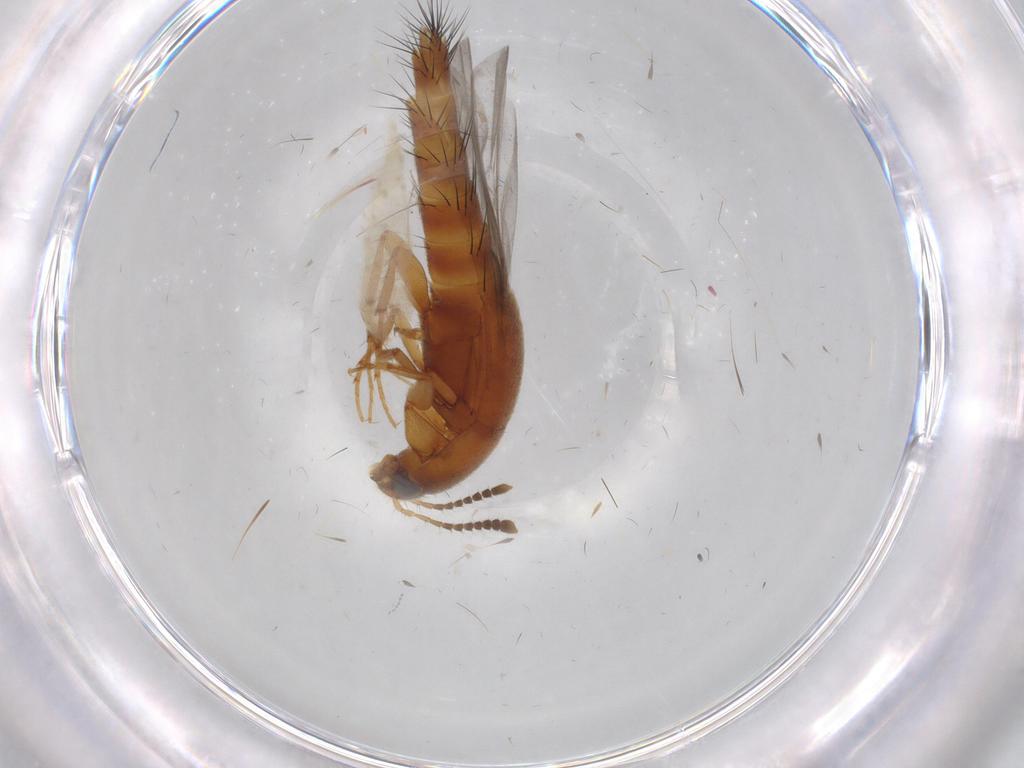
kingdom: Animalia
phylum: Arthropoda
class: Insecta
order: Coleoptera
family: Staphylinidae
